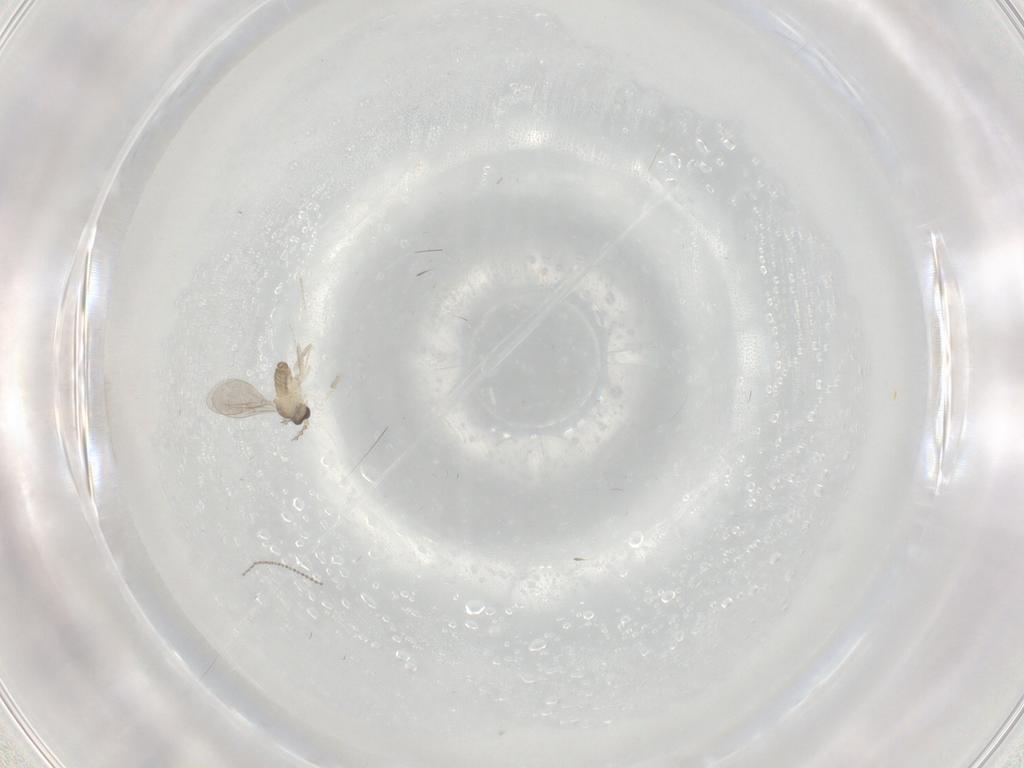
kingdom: Animalia
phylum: Arthropoda
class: Insecta
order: Diptera
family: Cecidomyiidae
